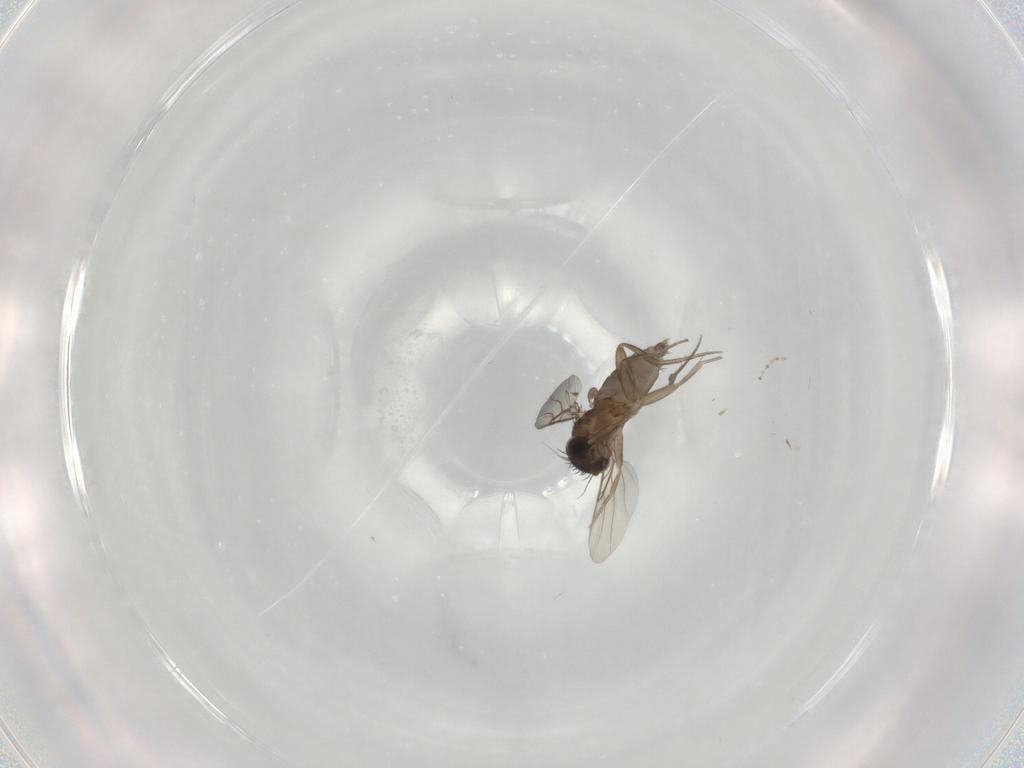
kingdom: Animalia
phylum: Arthropoda
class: Insecta
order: Diptera
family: Phoridae
